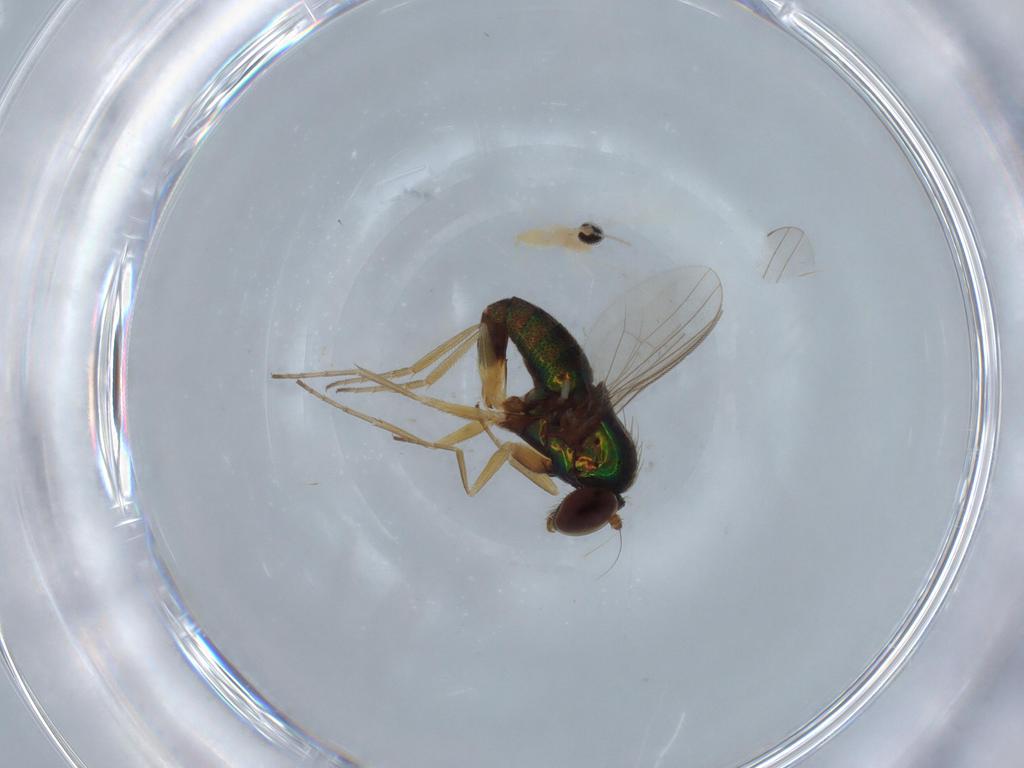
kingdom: Animalia
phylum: Arthropoda
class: Insecta
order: Diptera
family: Dolichopodidae
